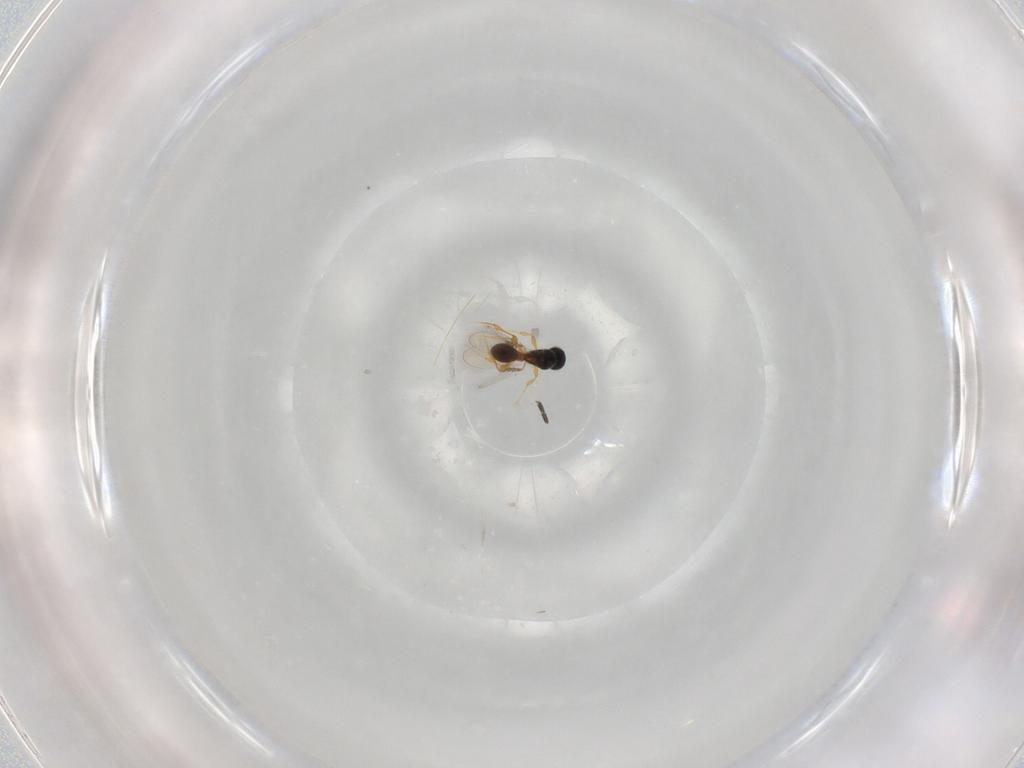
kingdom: Animalia
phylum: Arthropoda
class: Insecta
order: Hymenoptera
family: Platygastridae
